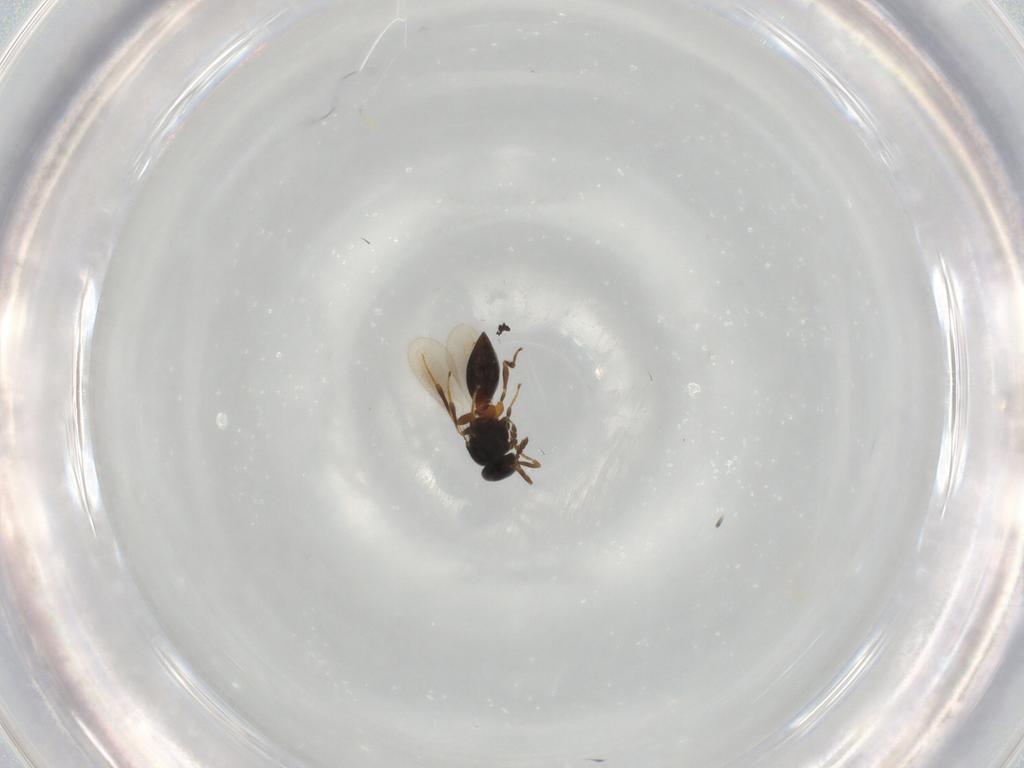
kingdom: Animalia
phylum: Arthropoda
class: Insecta
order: Hymenoptera
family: Platygastridae
